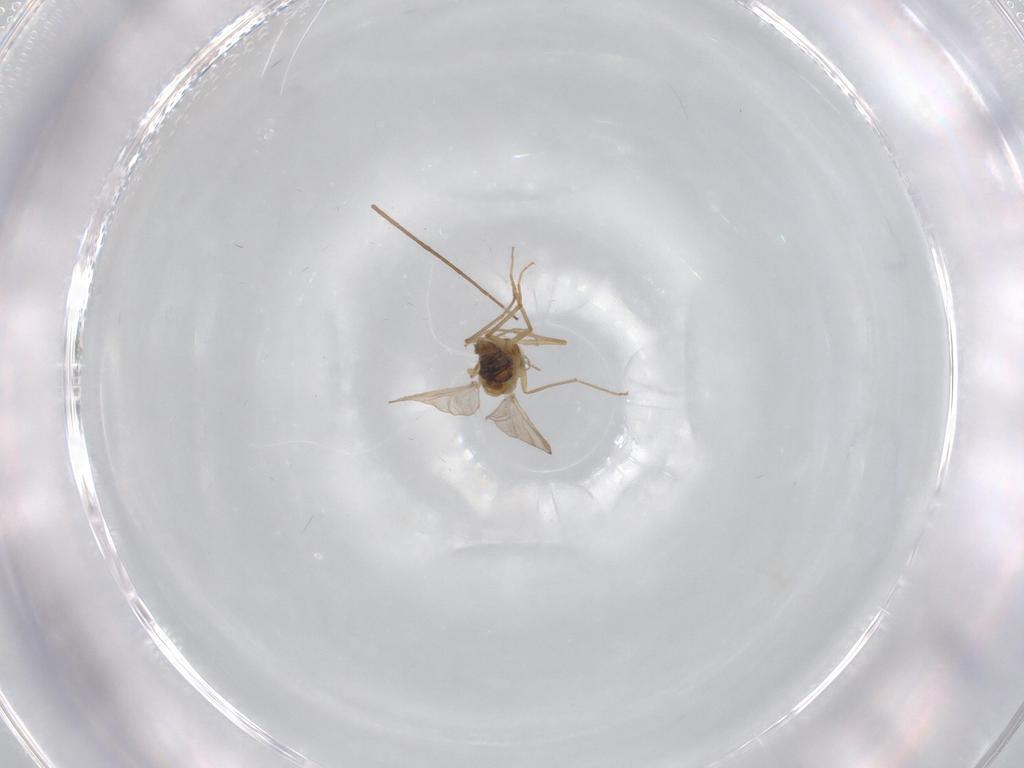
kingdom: Animalia
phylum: Arthropoda
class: Insecta
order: Diptera
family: Chironomidae
